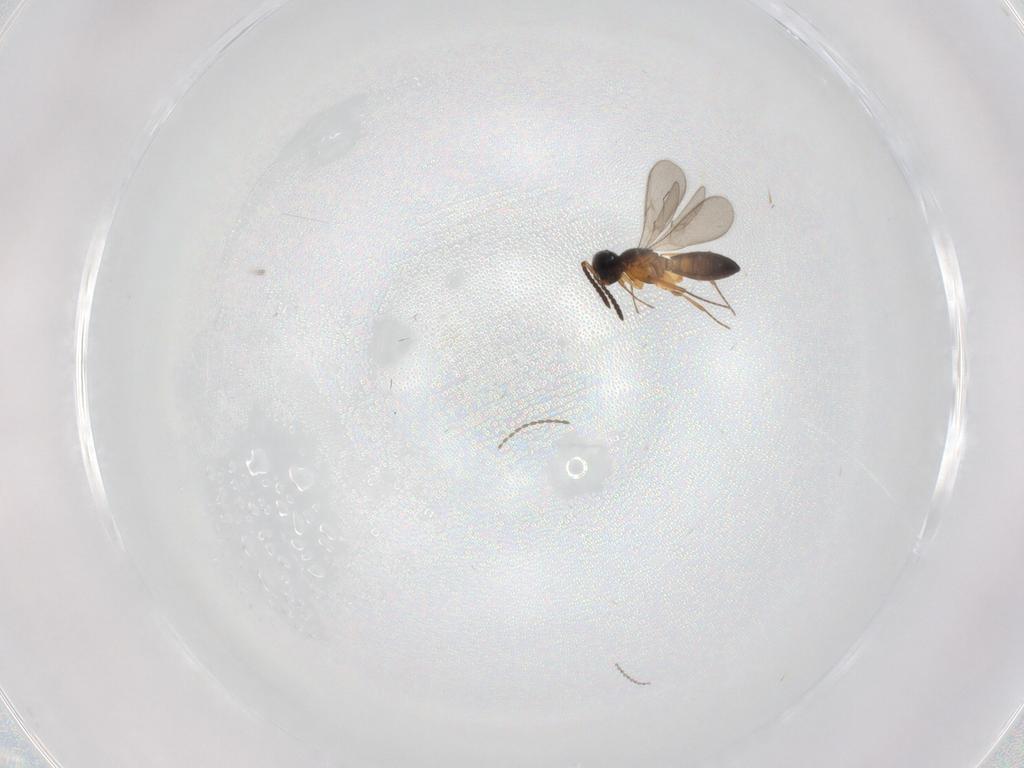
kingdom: Animalia
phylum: Arthropoda
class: Insecta
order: Hymenoptera
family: Scelionidae
